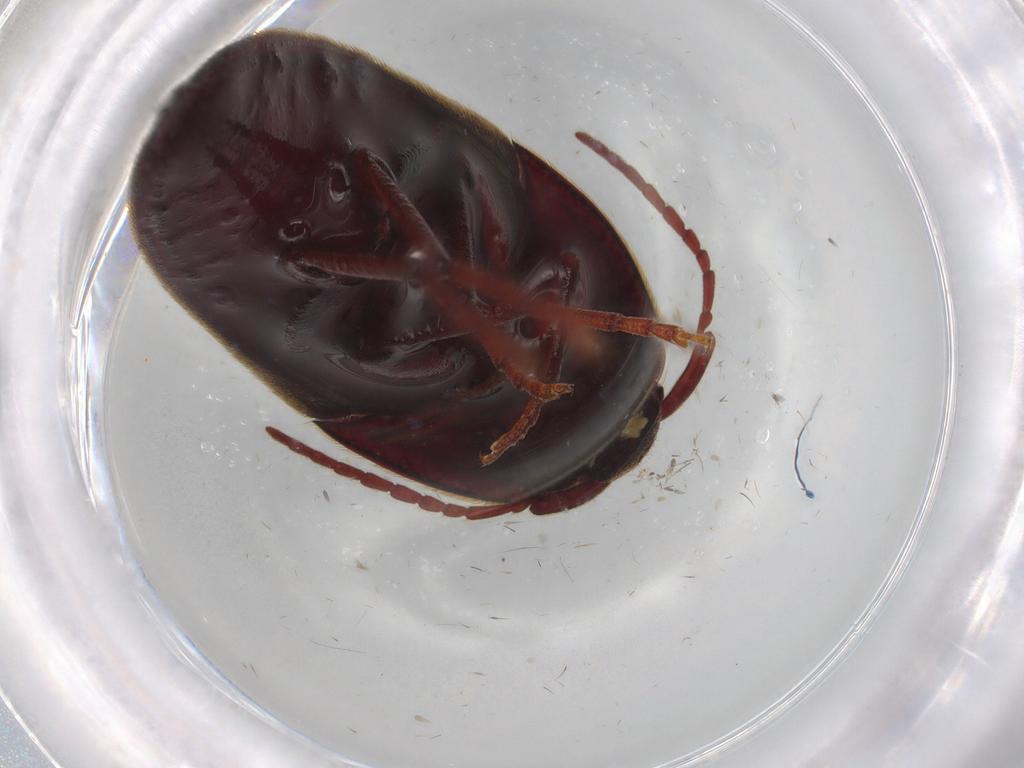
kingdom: Animalia
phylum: Arthropoda
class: Insecta
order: Coleoptera
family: Eucnemidae
